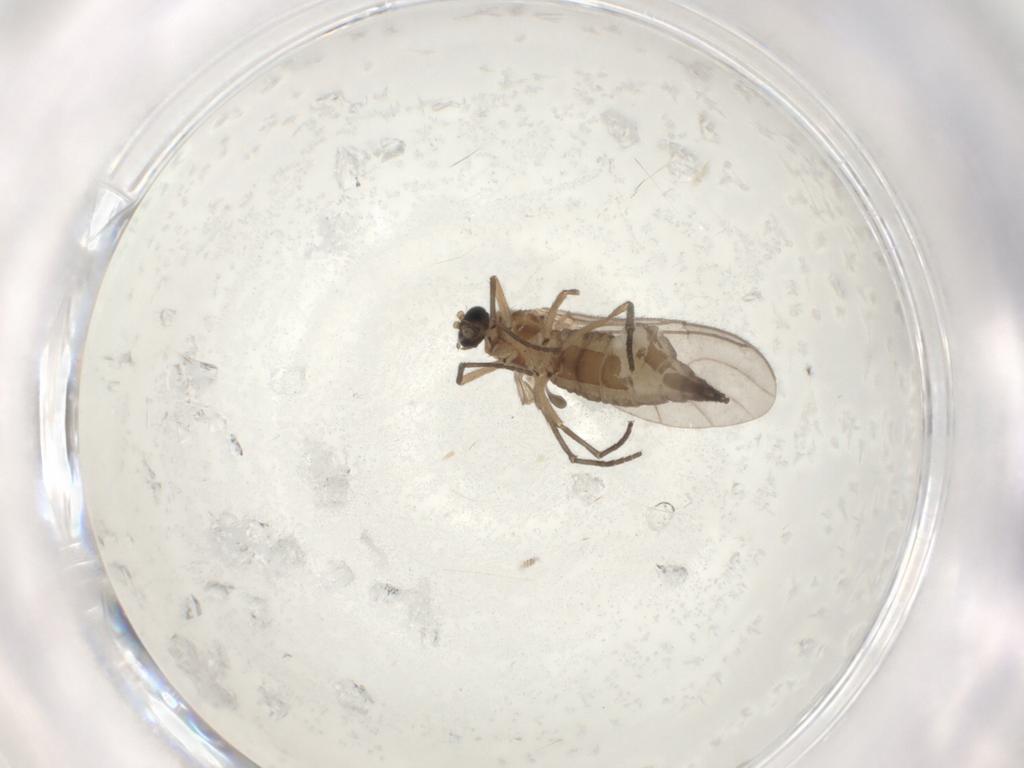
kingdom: Animalia
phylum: Arthropoda
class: Insecta
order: Diptera
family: Sciaridae
